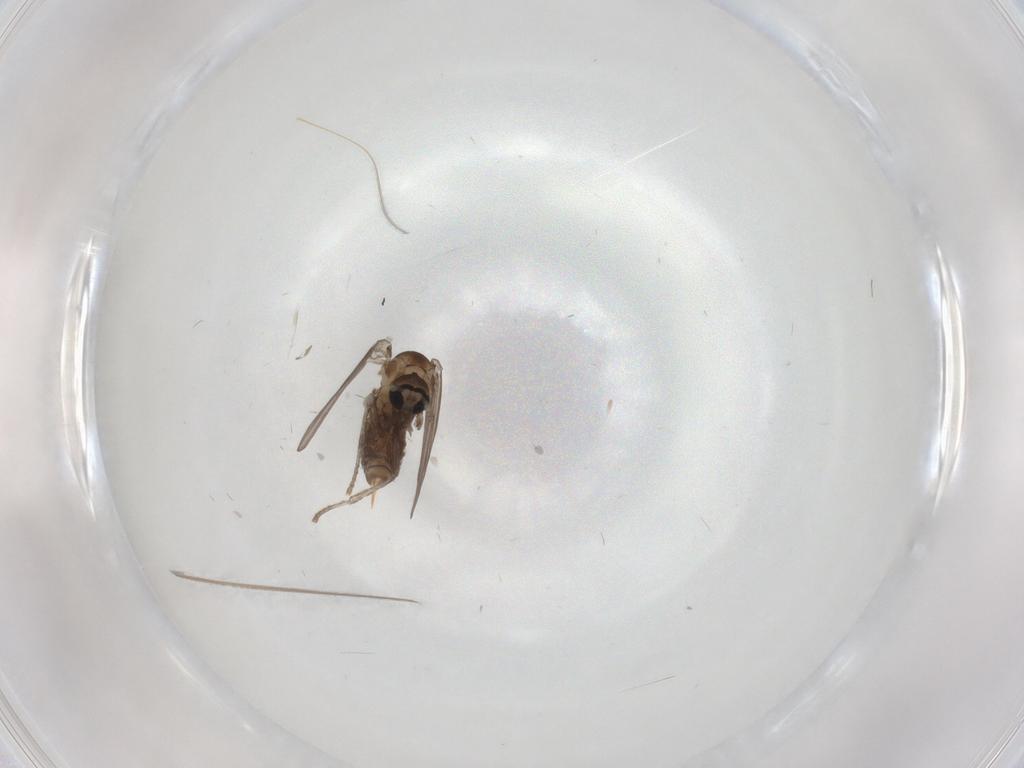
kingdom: Animalia
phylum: Arthropoda
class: Insecta
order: Diptera
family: Psychodidae
